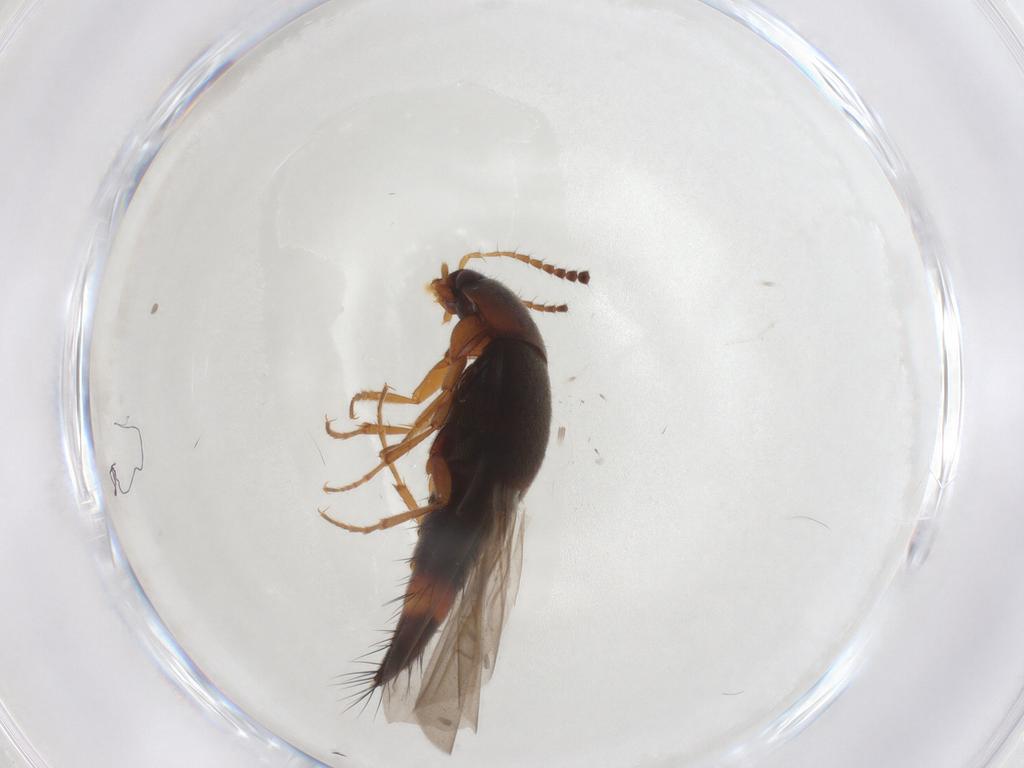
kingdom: Animalia
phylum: Arthropoda
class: Insecta
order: Coleoptera
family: Staphylinidae
